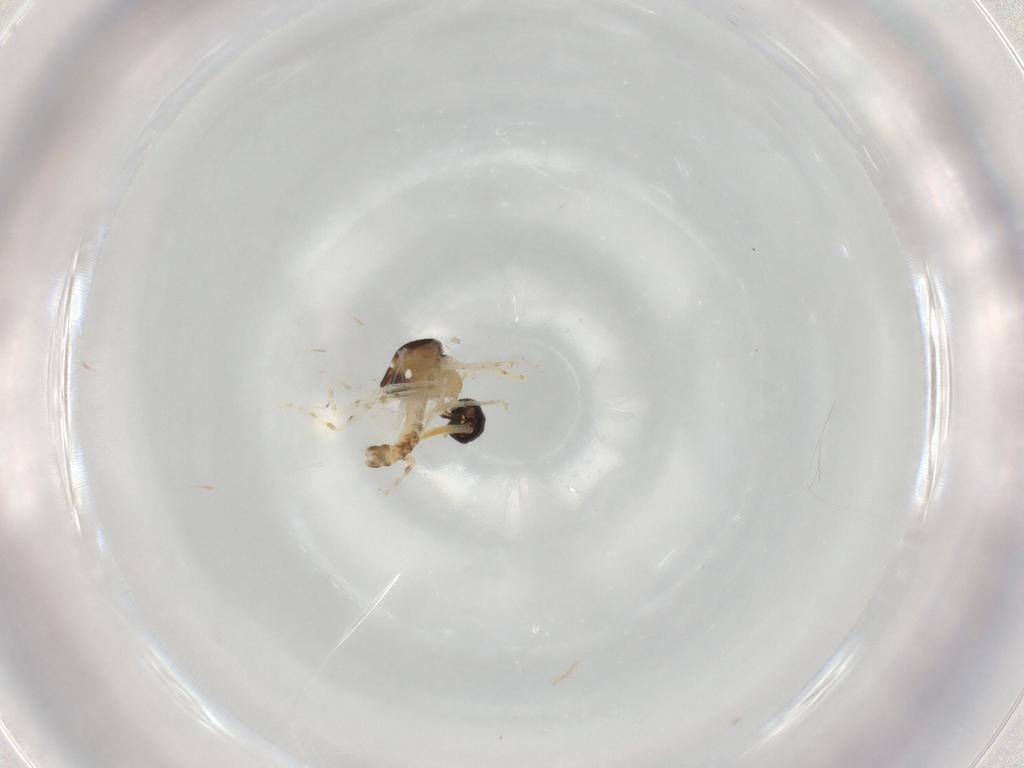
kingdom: Animalia
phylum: Arthropoda
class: Insecta
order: Diptera
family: Ceratopogonidae
